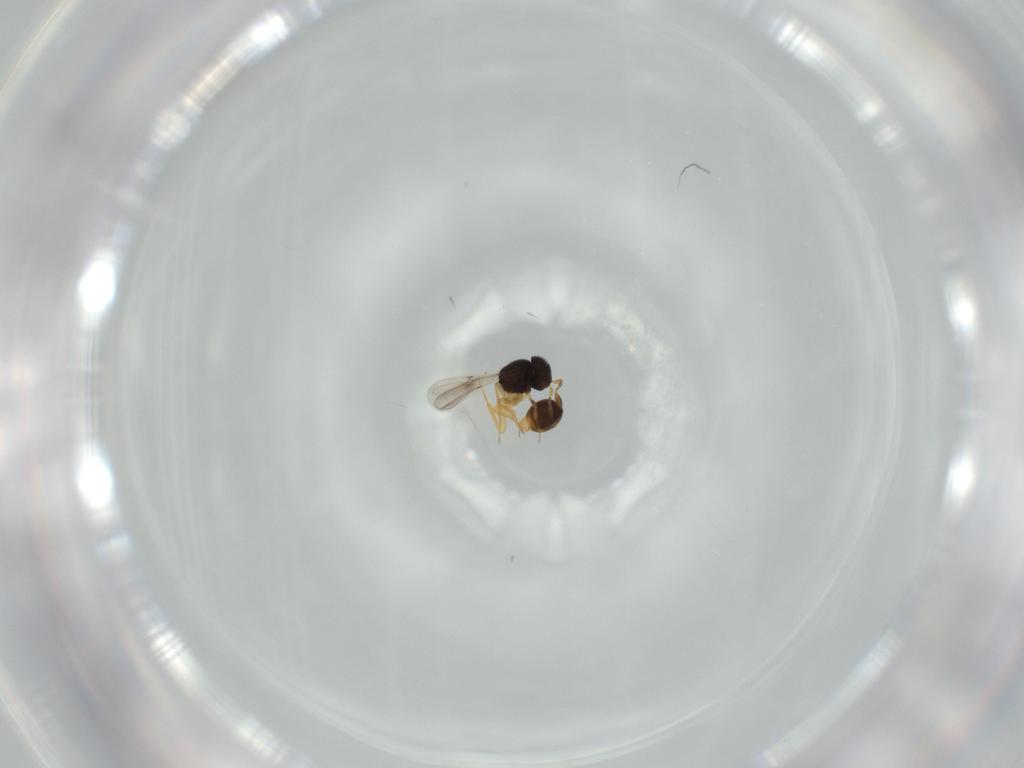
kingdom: Animalia
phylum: Arthropoda
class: Insecta
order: Hymenoptera
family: Scelionidae
